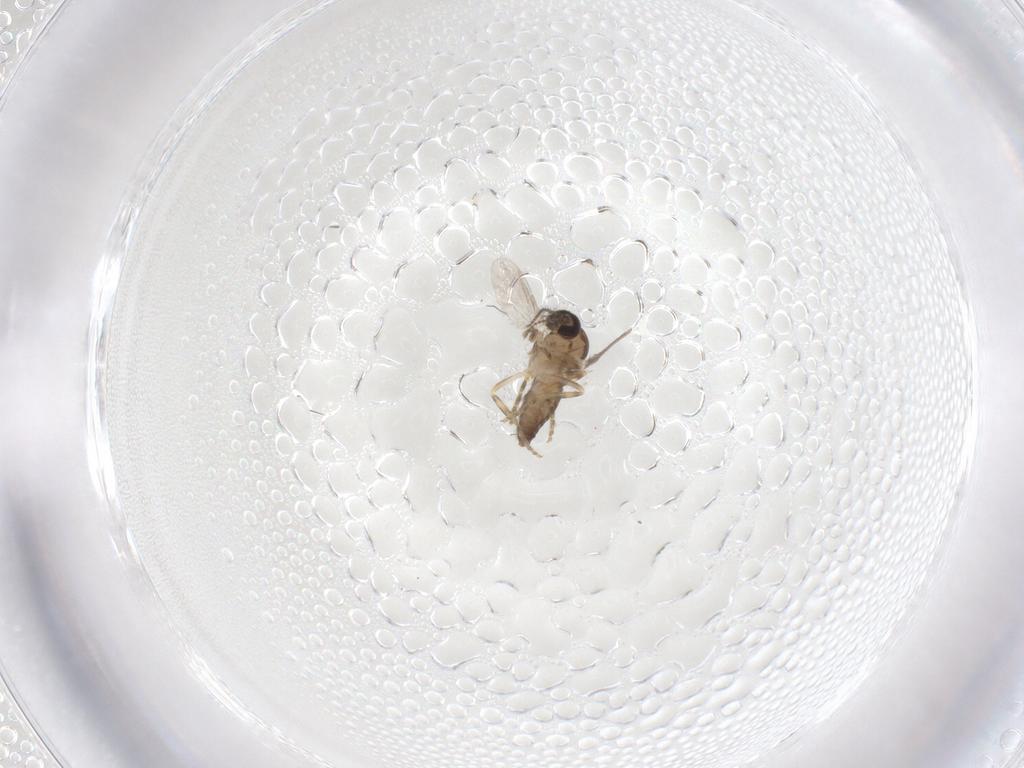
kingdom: Animalia
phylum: Arthropoda
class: Insecta
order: Diptera
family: Ceratopogonidae
